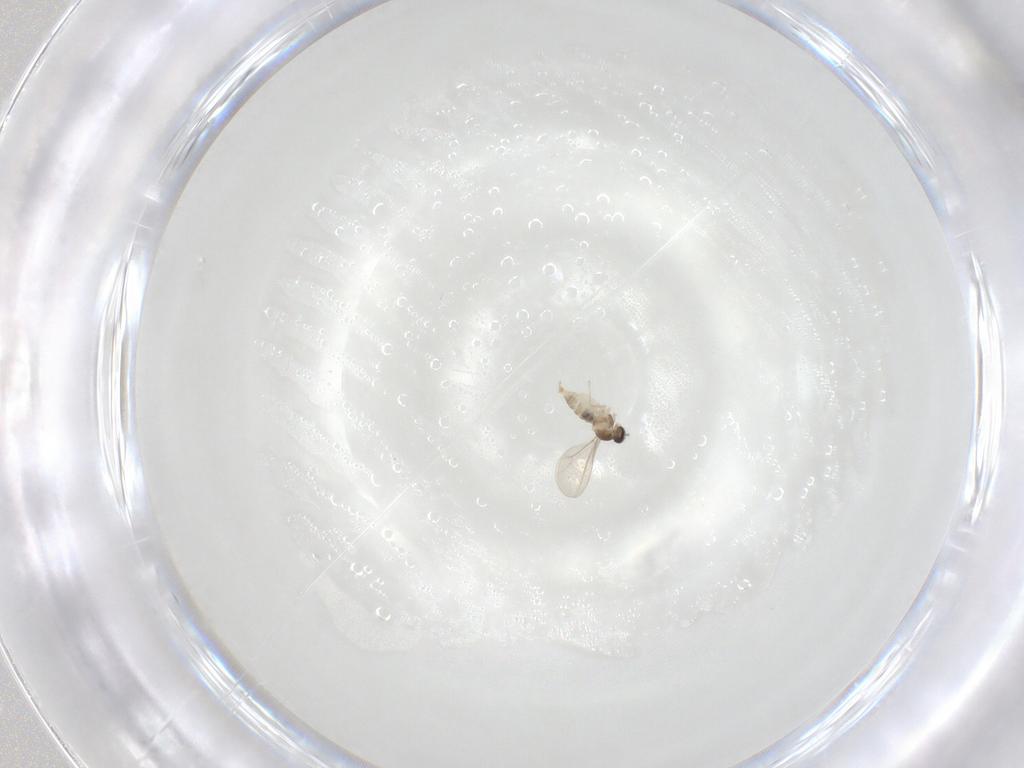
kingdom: Animalia
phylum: Arthropoda
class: Insecta
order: Diptera
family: Cecidomyiidae
